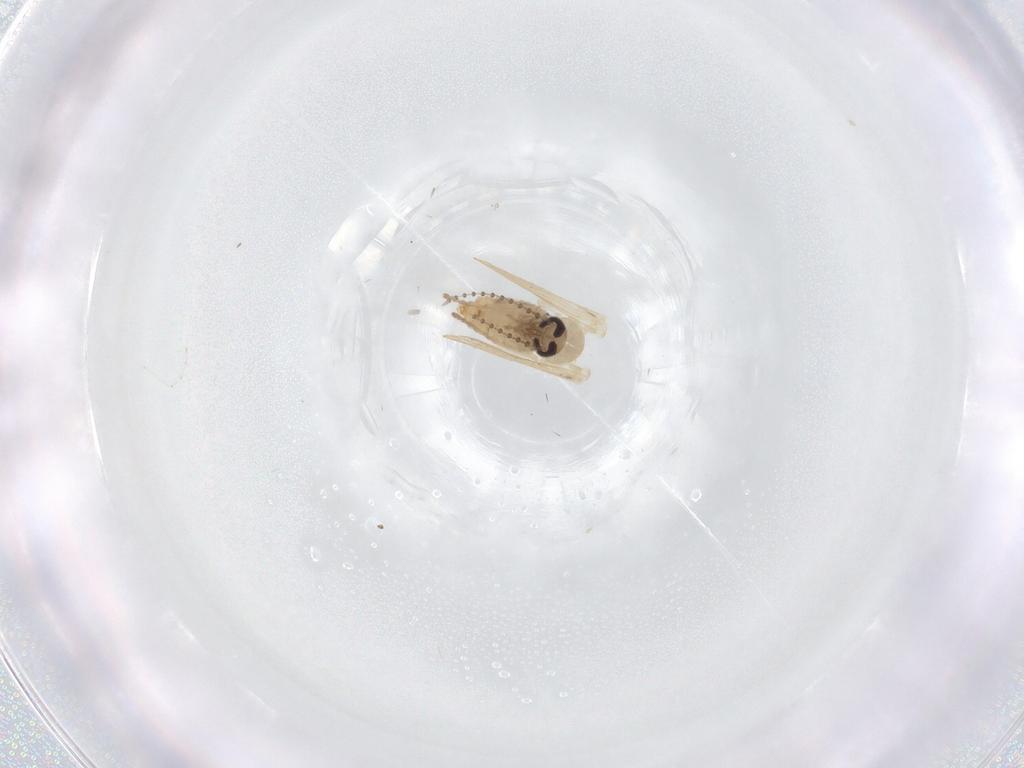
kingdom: Animalia
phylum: Arthropoda
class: Insecta
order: Diptera
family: Psychodidae
